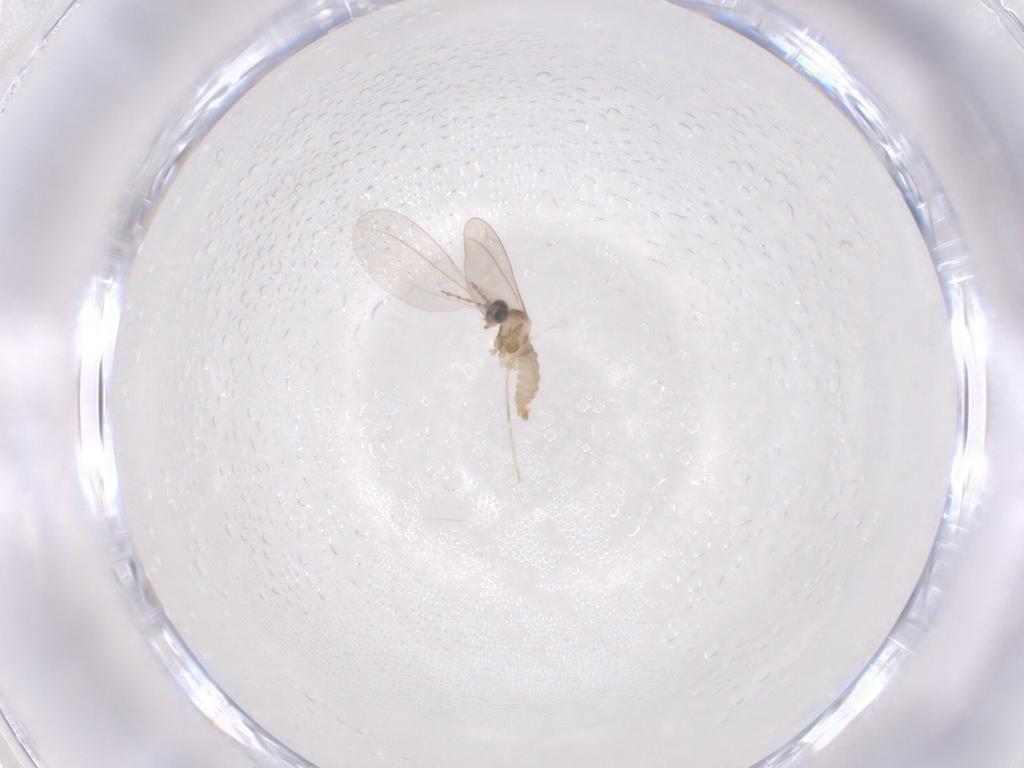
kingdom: Animalia
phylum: Arthropoda
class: Insecta
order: Diptera
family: Cecidomyiidae
